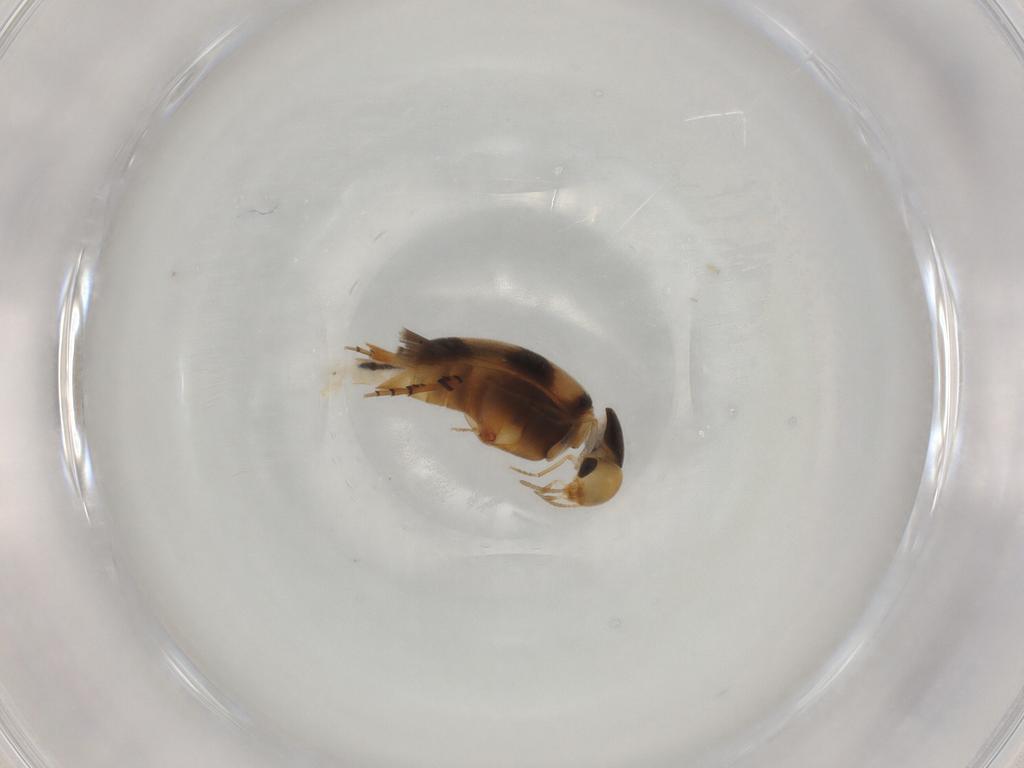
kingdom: Animalia
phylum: Arthropoda
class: Insecta
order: Coleoptera
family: Mordellidae
